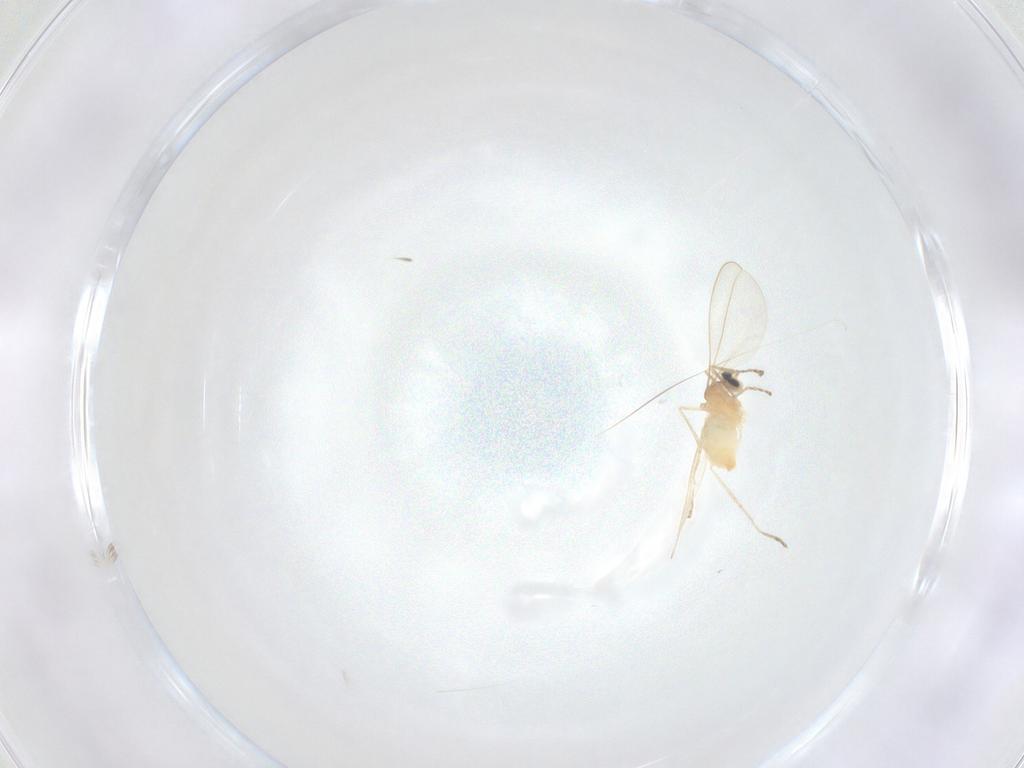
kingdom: Animalia
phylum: Arthropoda
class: Insecta
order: Diptera
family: Cecidomyiidae
